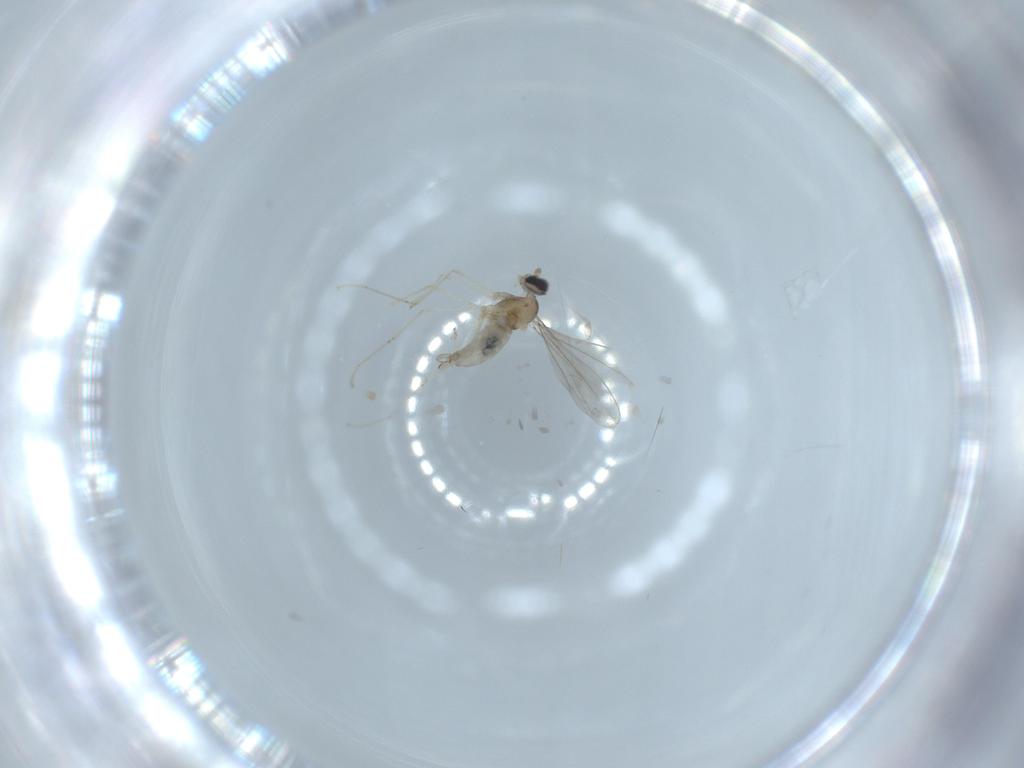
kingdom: Animalia
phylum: Arthropoda
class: Insecta
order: Diptera
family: Cecidomyiidae
